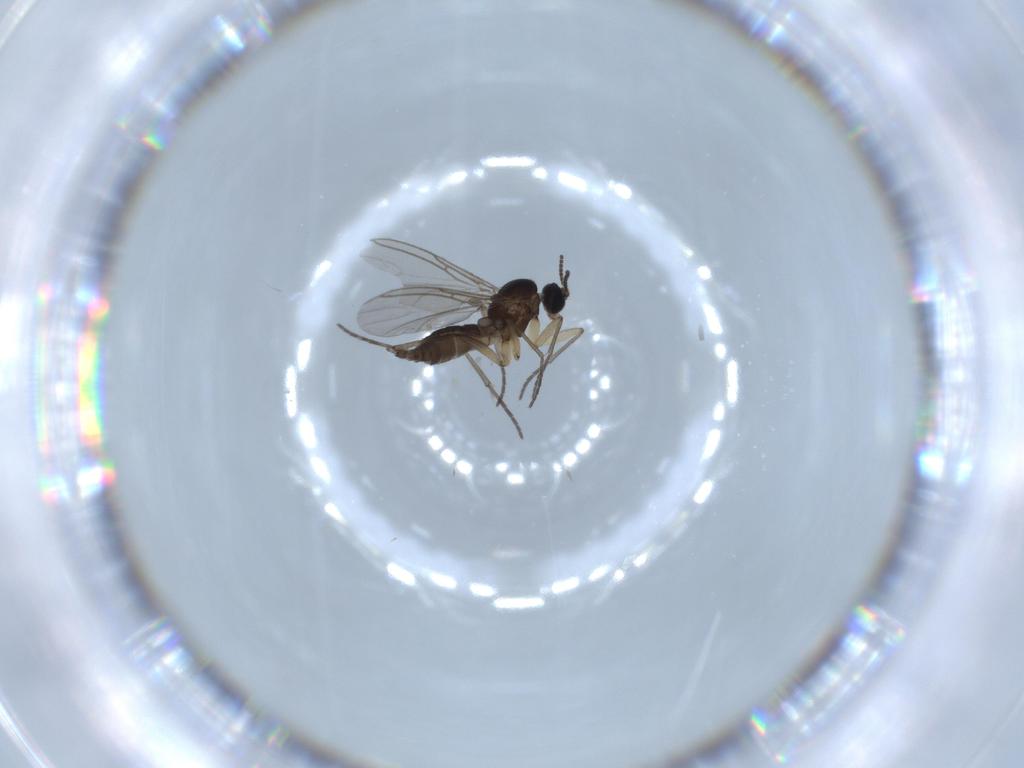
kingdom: Animalia
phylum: Arthropoda
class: Insecta
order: Diptera
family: Sciaridae
